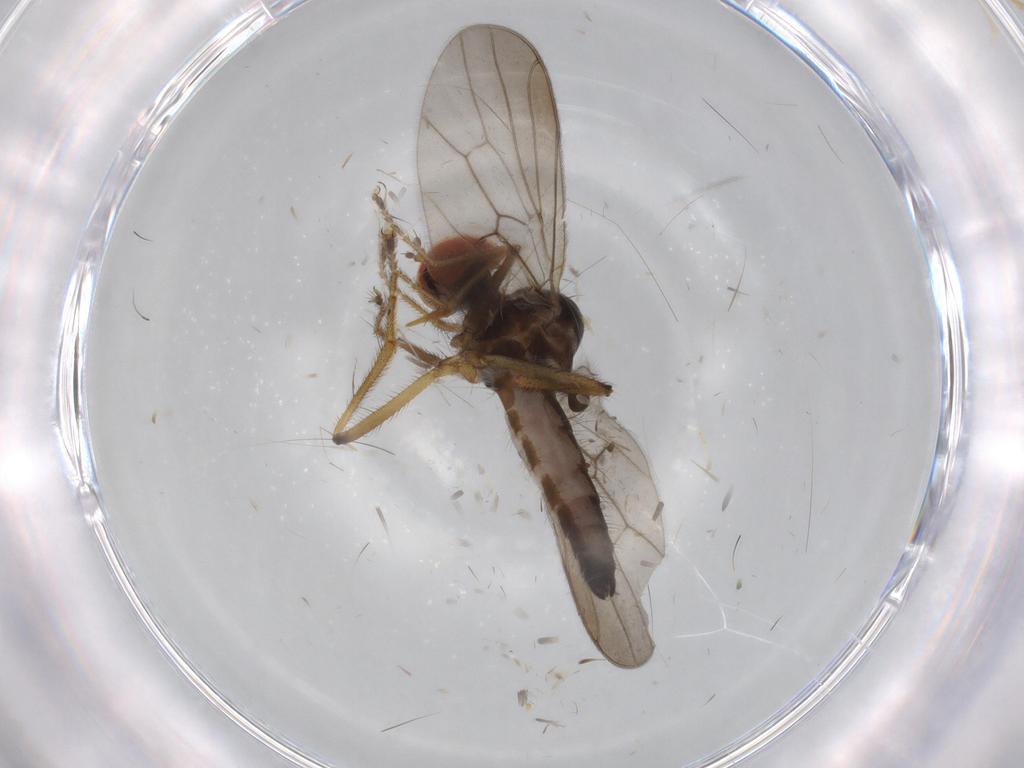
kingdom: Animalia
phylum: Arthropoda
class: Insecta
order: Diptera
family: Hybotidae
